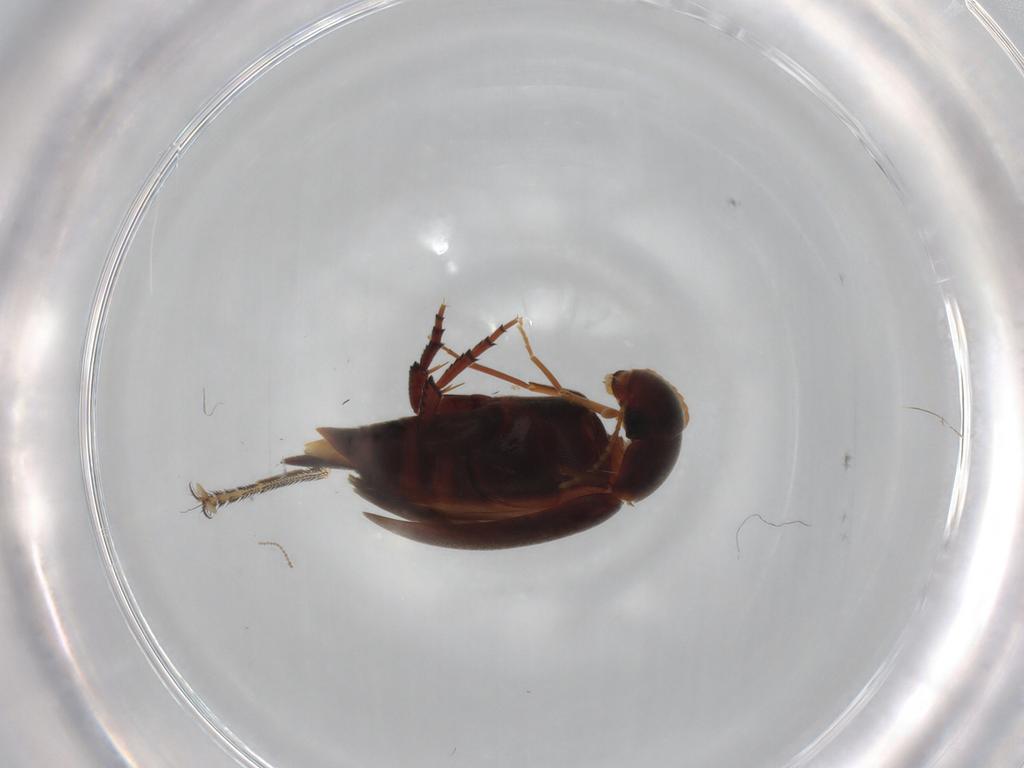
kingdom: Animalia
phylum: Arthropoda
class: Insecta
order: Coleoptera
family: Mordellidae
